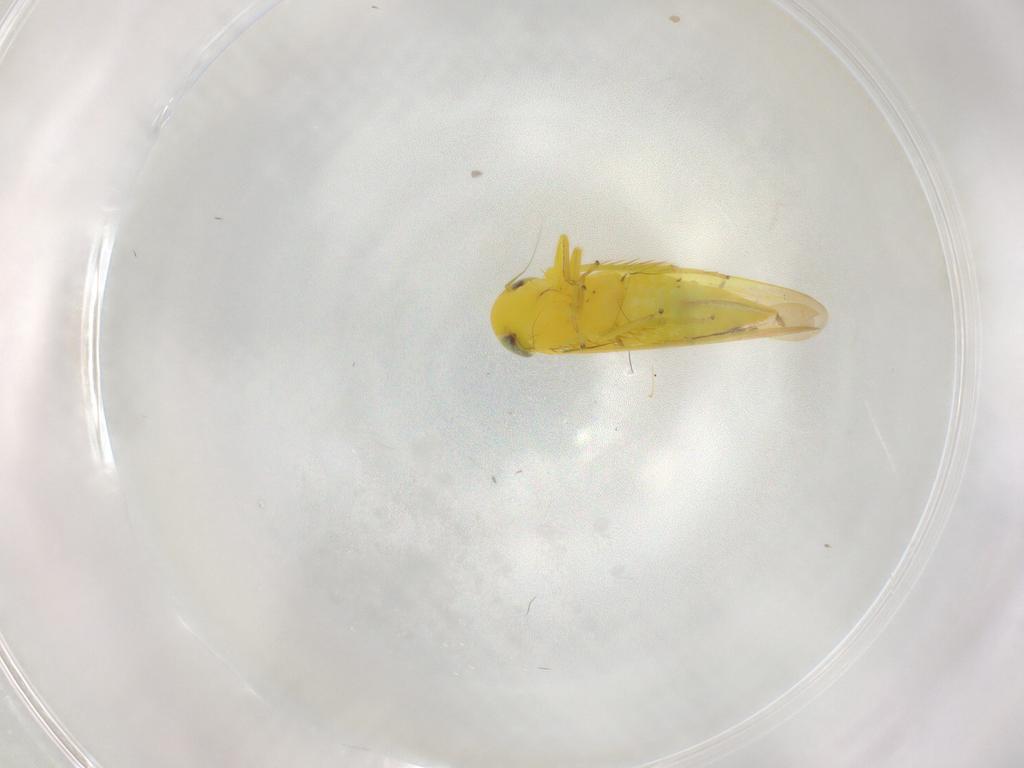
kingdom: Animalia
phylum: Arthropoda
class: Insecta
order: Hemiptera
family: Cicadellidae
